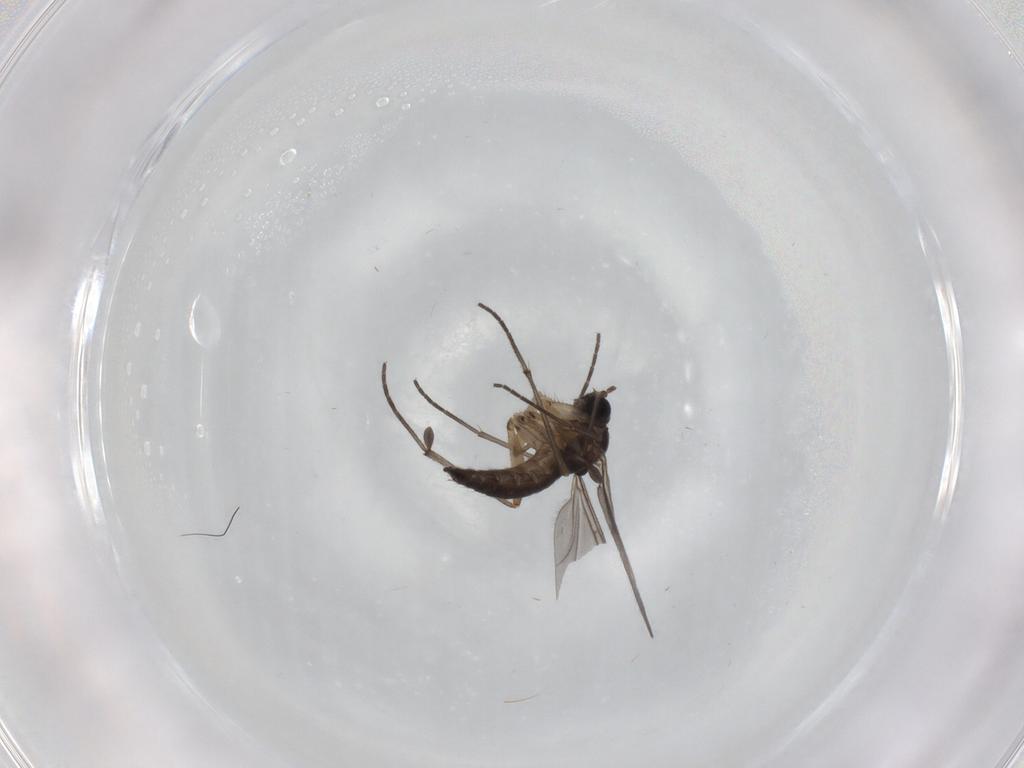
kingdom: Animalia
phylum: Arthropoda
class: Insecta
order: Diptera
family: Sciaridae
